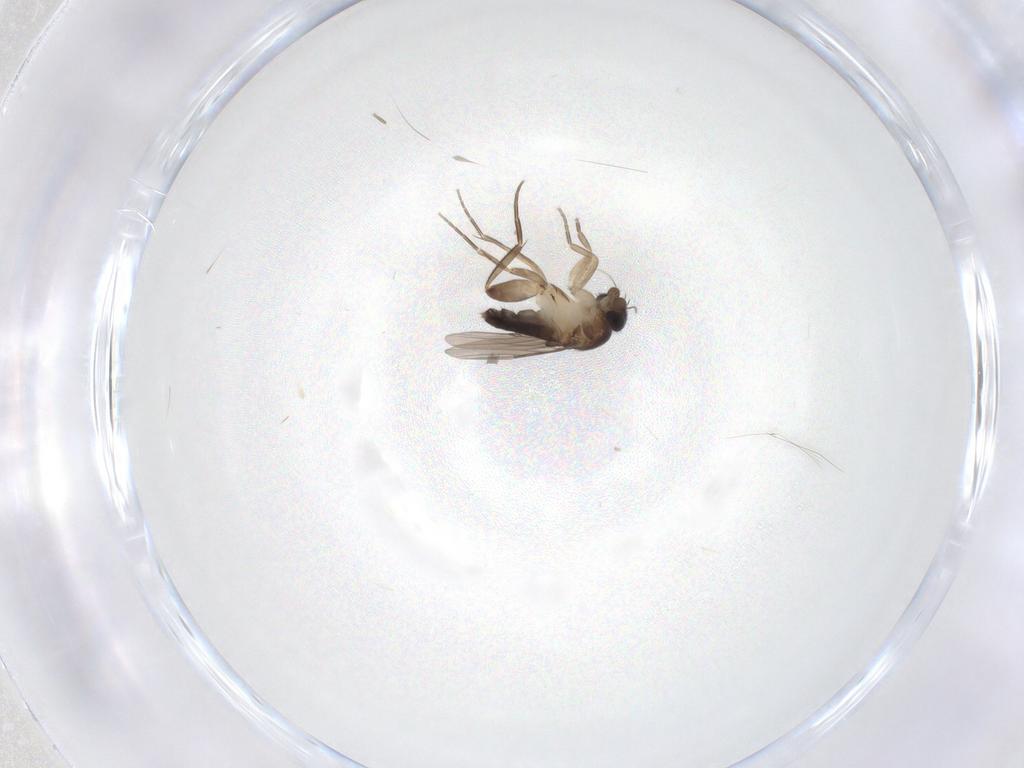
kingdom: Animalia
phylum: Arthropoda
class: Insecta
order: Diptera
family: Phoridae
